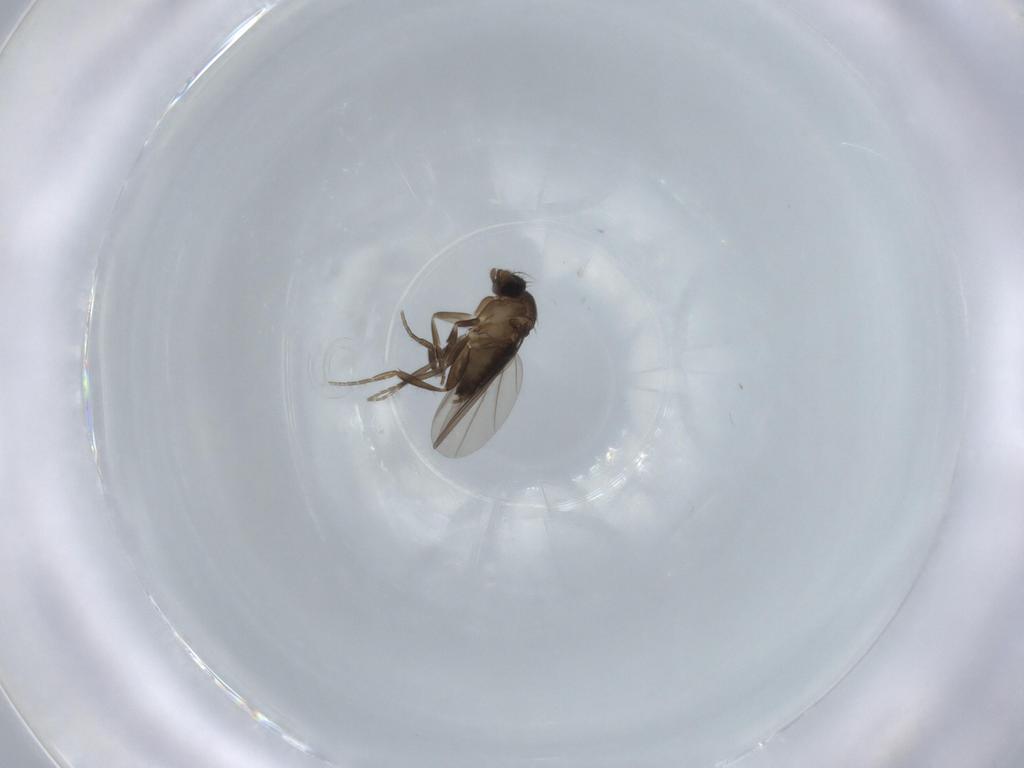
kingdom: Animalia
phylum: Arthropoda
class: Insecta
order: Diptera
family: Phoridae
